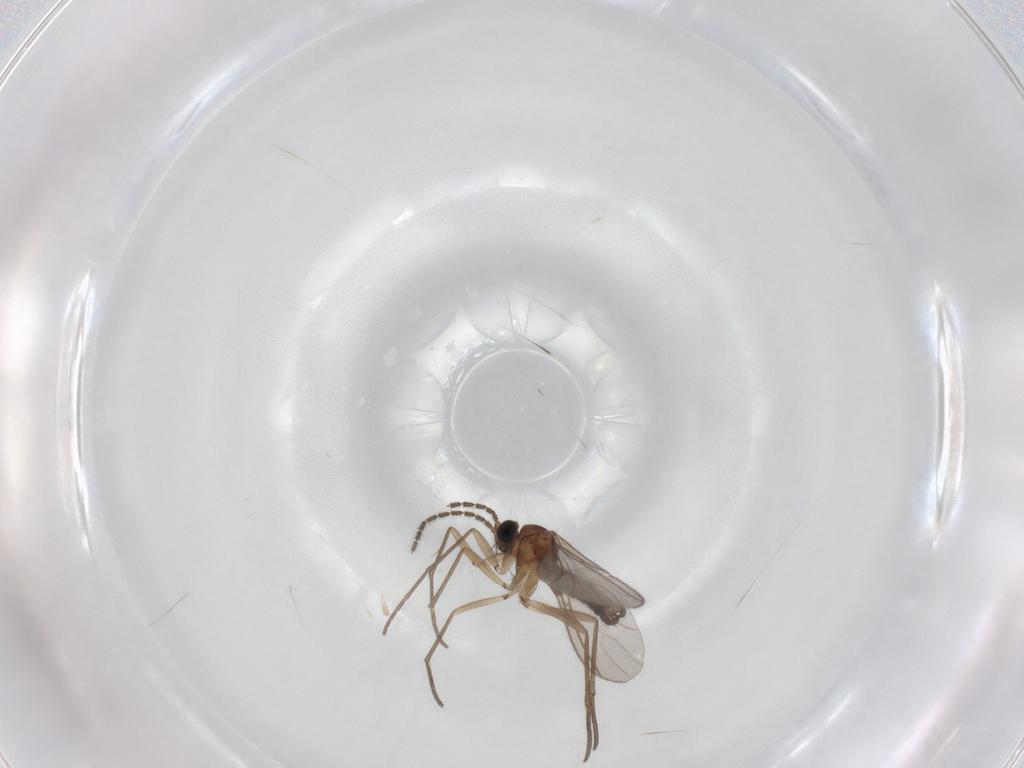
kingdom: Animalia
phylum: Arthropoda
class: Insecta
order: Diptera
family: Sciaridae
